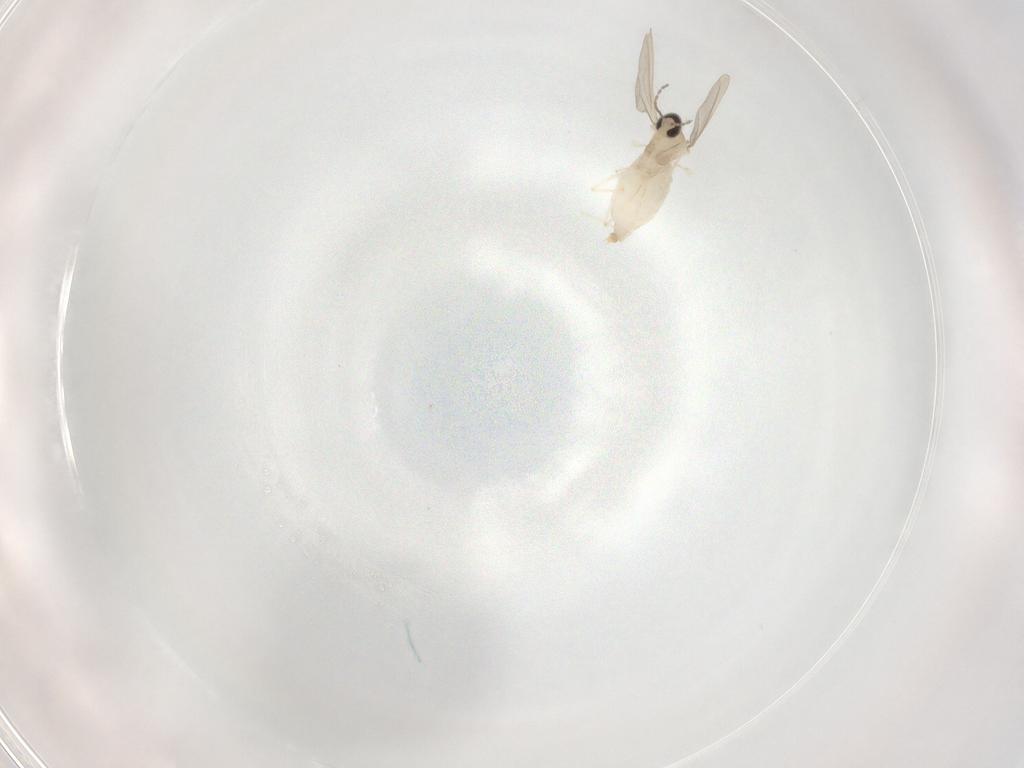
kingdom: Animalia
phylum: Arthropoda
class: Insecta
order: Diptera
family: Cecidomyiidae
